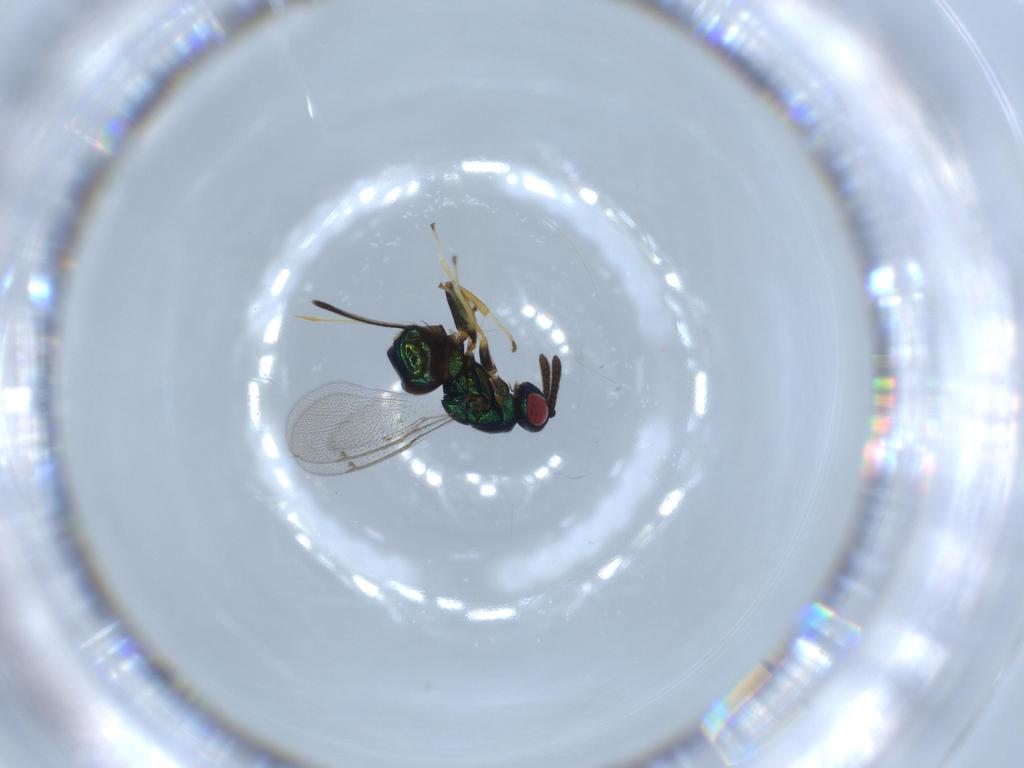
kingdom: Animalia
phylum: Arthropoda
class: Insecta
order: Hymenoptera
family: Torymidae
